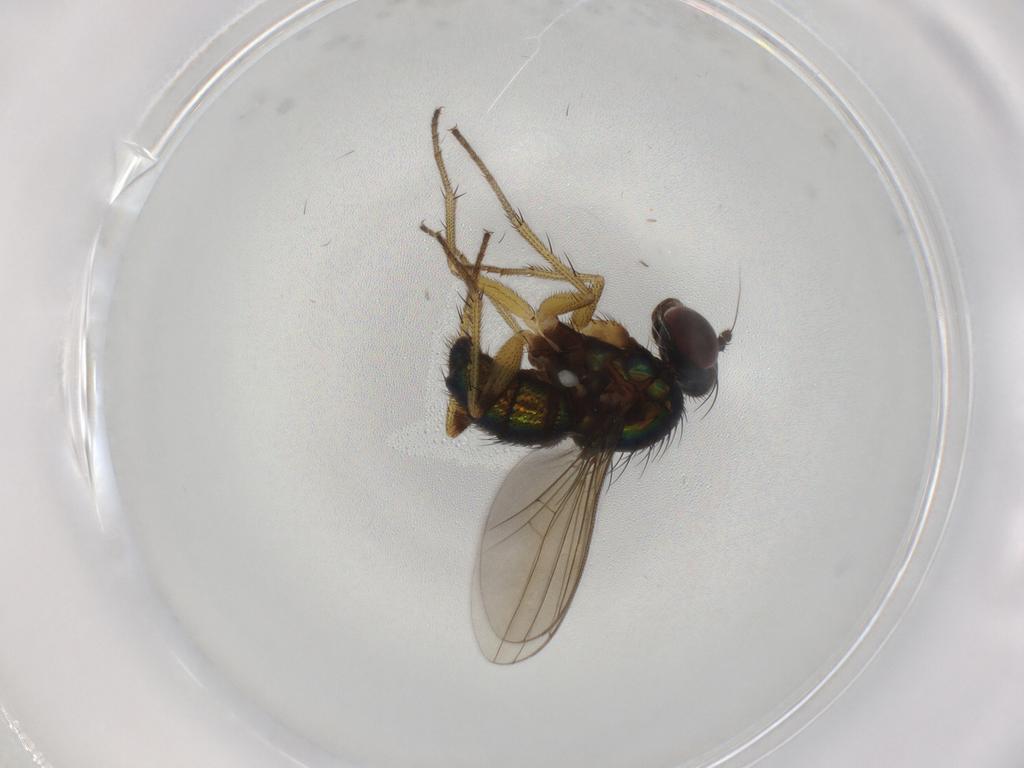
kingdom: Animalia
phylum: Arthropoda
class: Insecta
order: Diptera
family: Dolichopodidae
